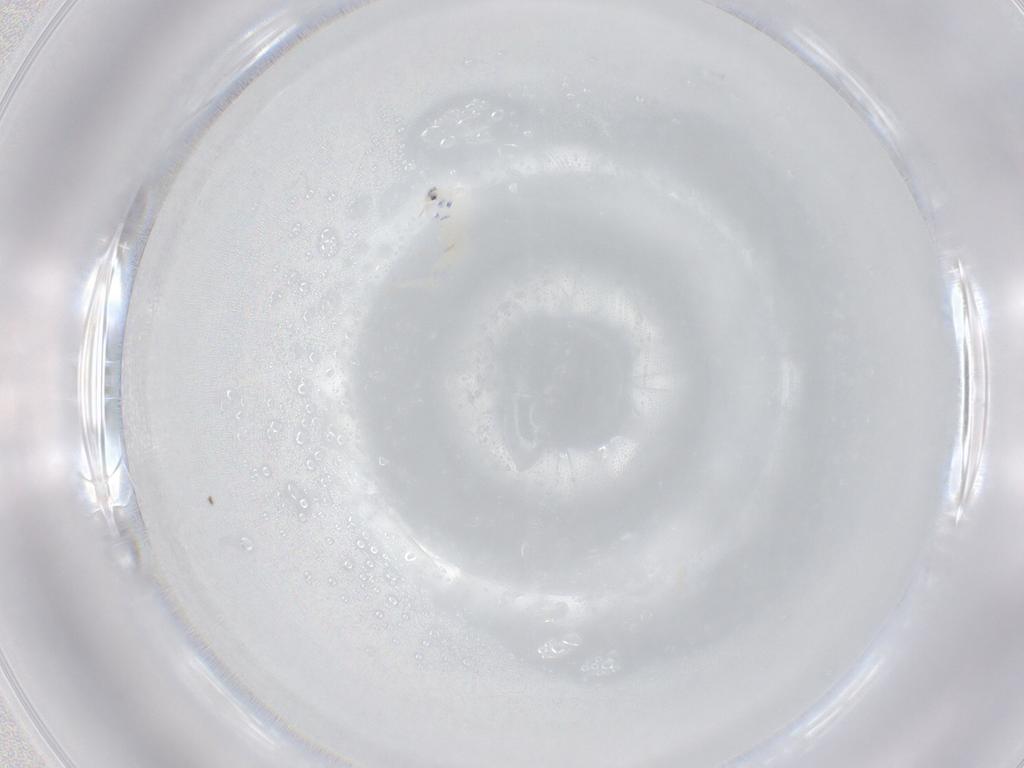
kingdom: Animalia
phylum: Arthropoda
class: Collembola
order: Entomobryomorpha
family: Entomobryidae
